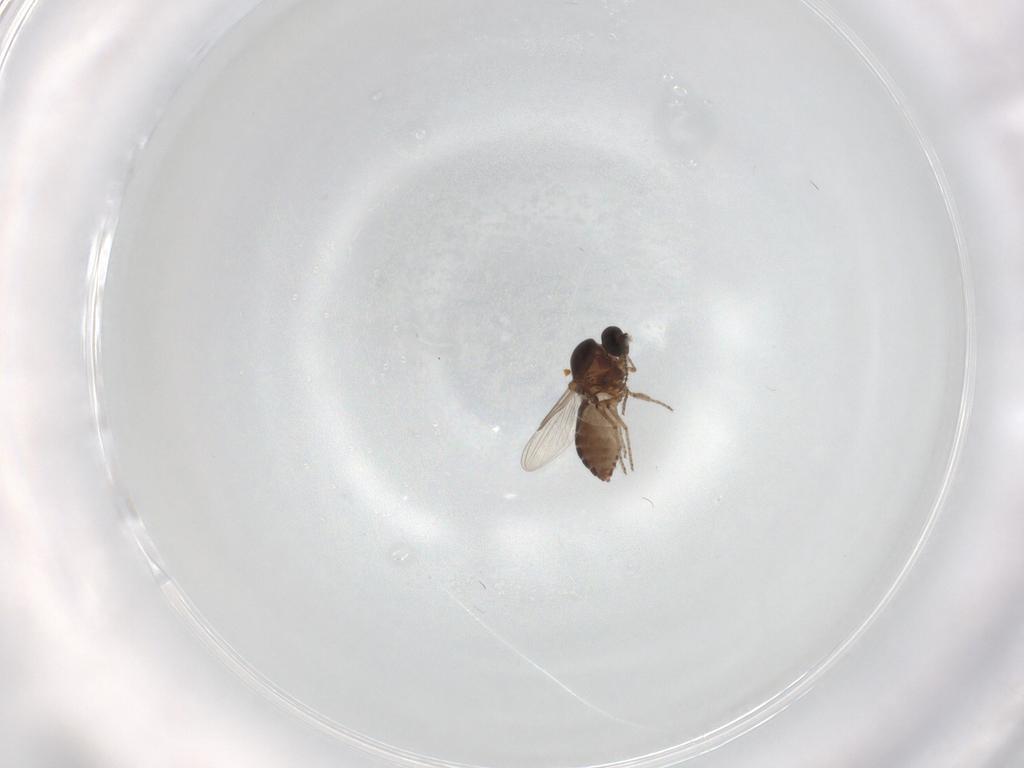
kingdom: Animalia
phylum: Arthropoda
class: Insecta
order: Diptera
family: Ceratopogonidae
